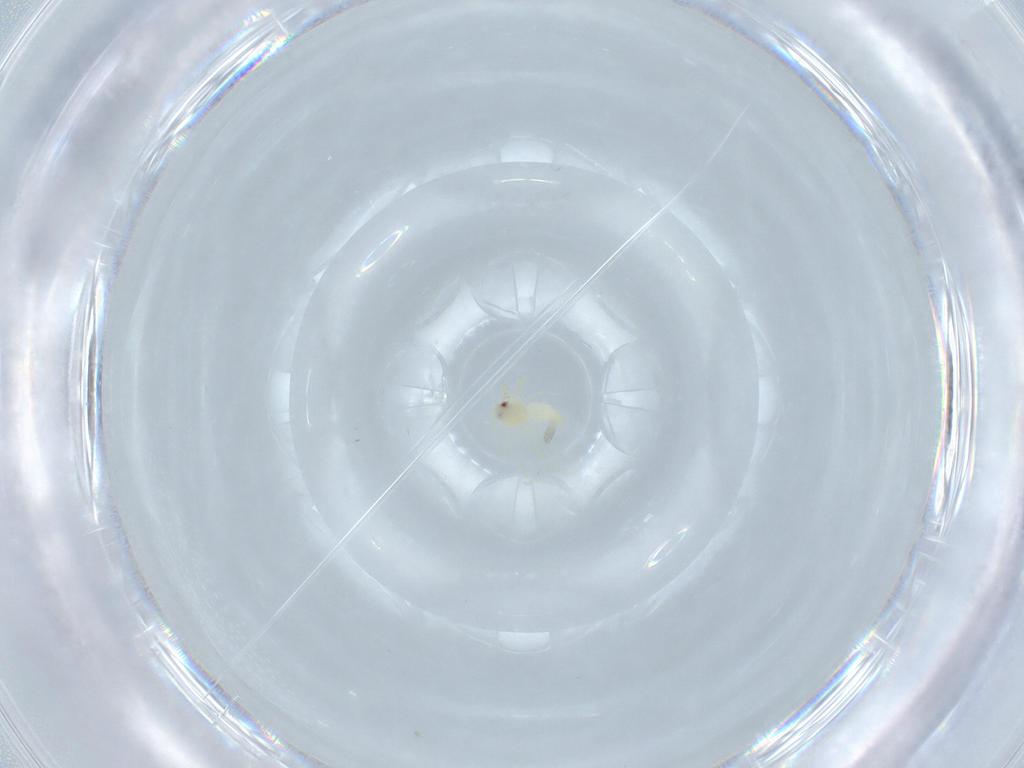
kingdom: Animalia
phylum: Arthropoda
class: Insecta
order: Hemiptera
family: Aleyrodidae
